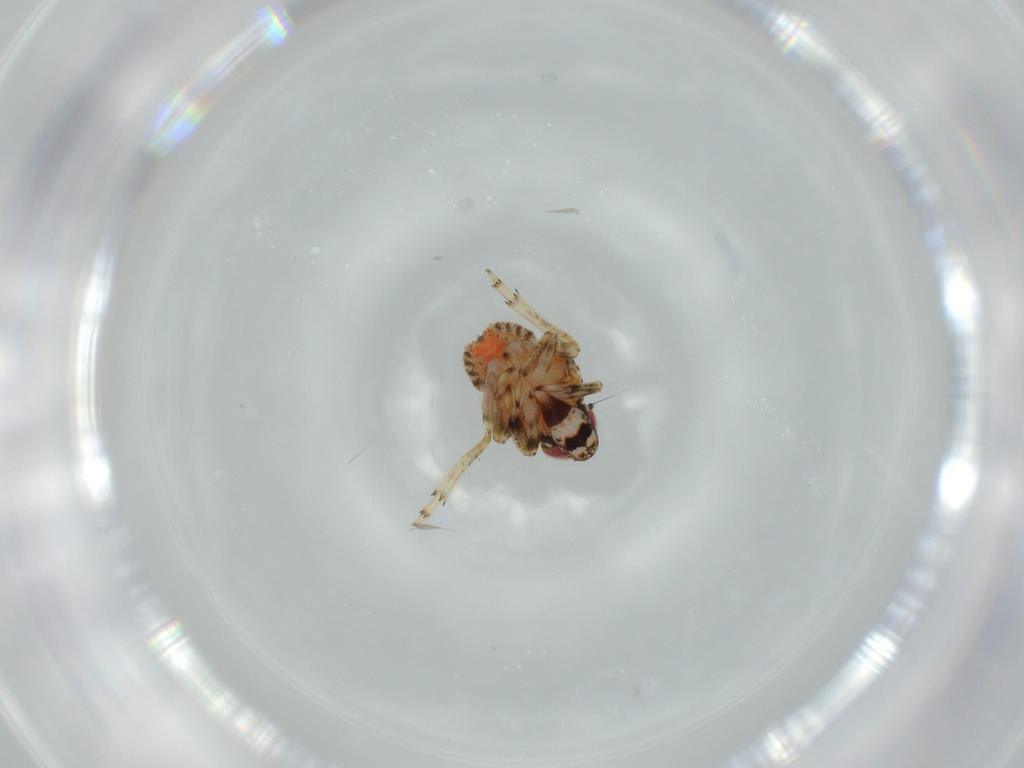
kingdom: Animalia
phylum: Arthropoda
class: Insecta
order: Hemiptera
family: Issidae
